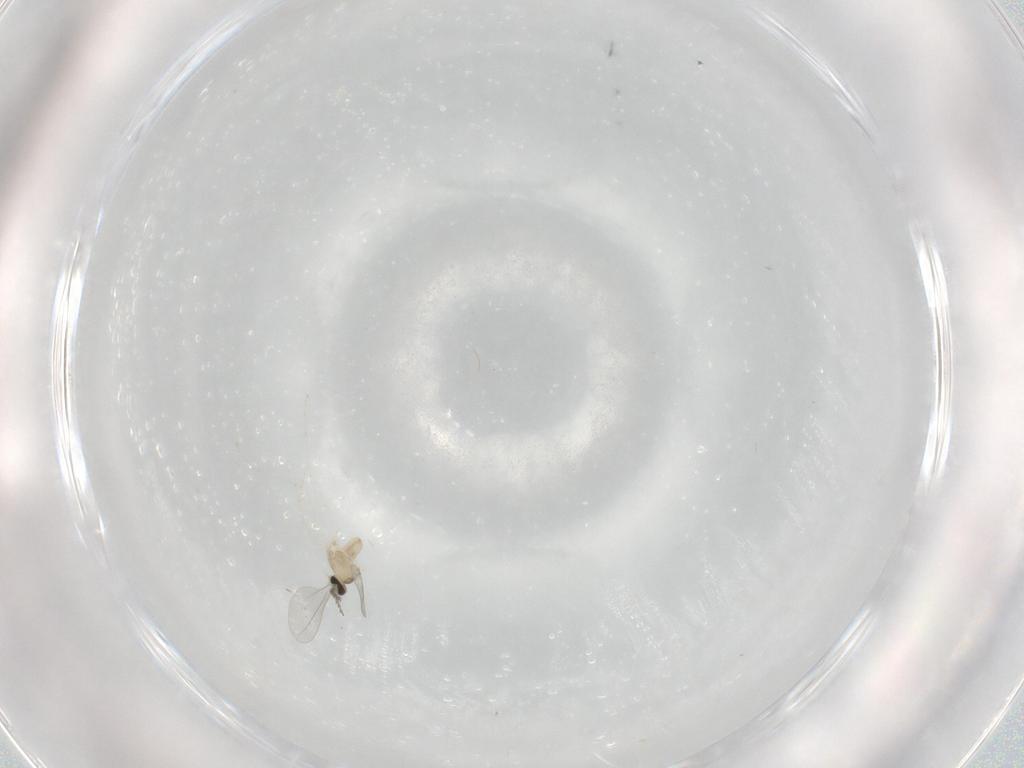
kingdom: Animalia
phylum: Arthropoda
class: Insecta
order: Diptera
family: Cecidomyiidae
